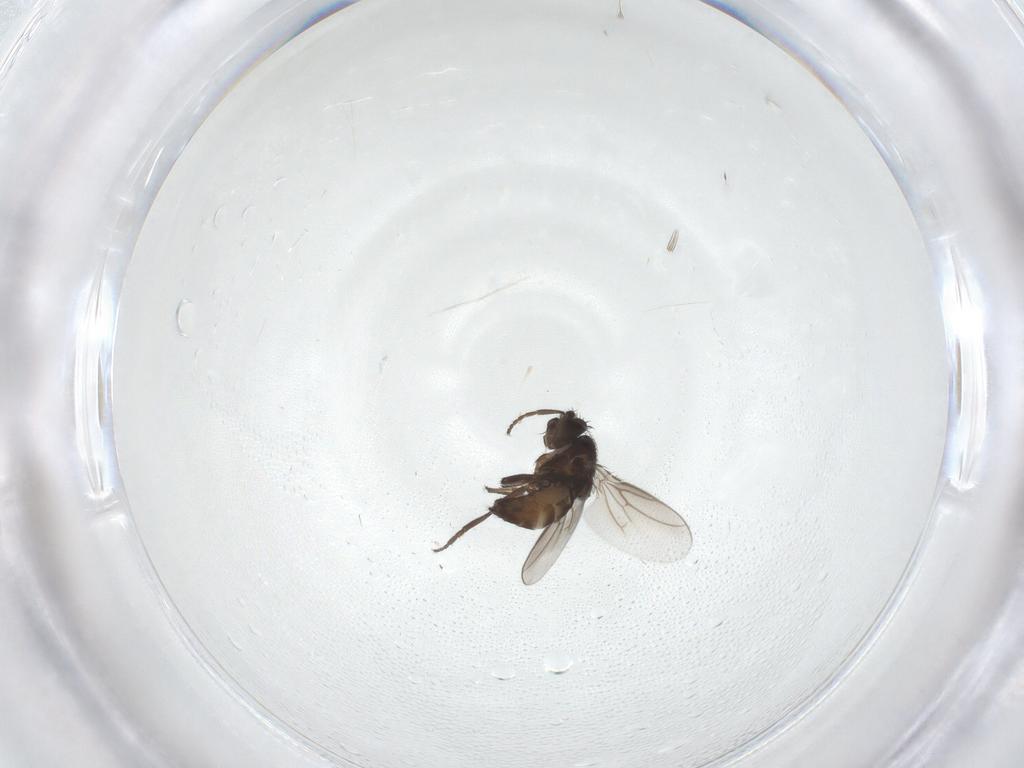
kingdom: Animalia
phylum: Arthropoda
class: Insecta
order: Diptera
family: Sphaeroceridae
